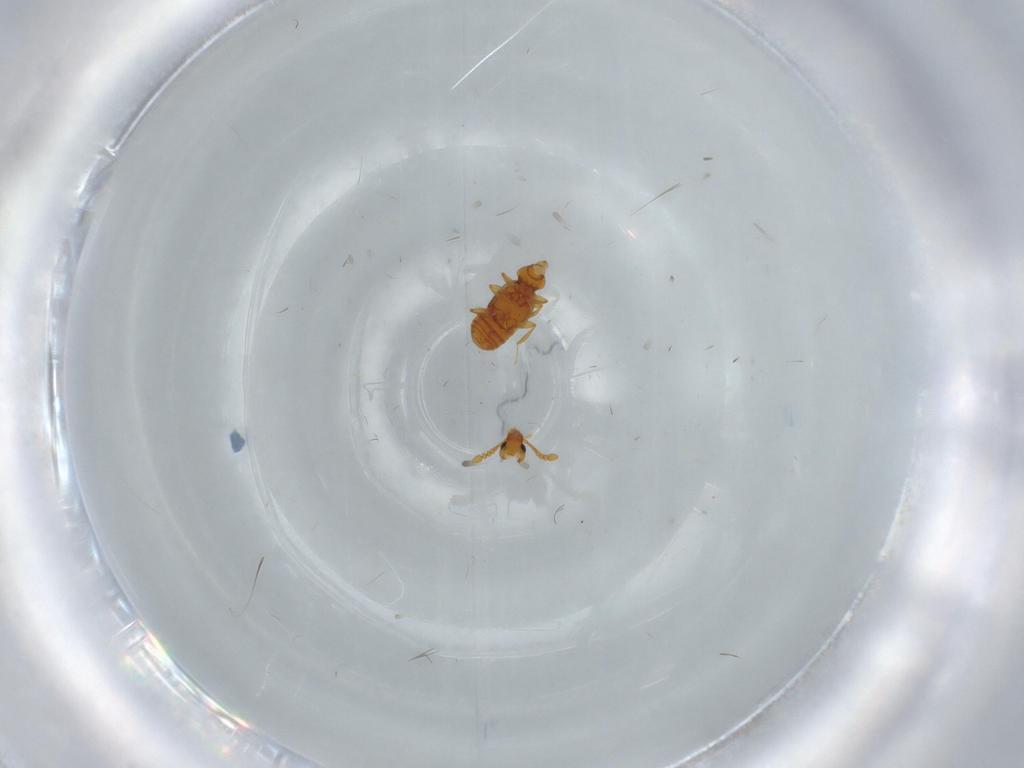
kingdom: Animalia
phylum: Arthropoda
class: Insecta
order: Coleoptera
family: Staphylinidae
